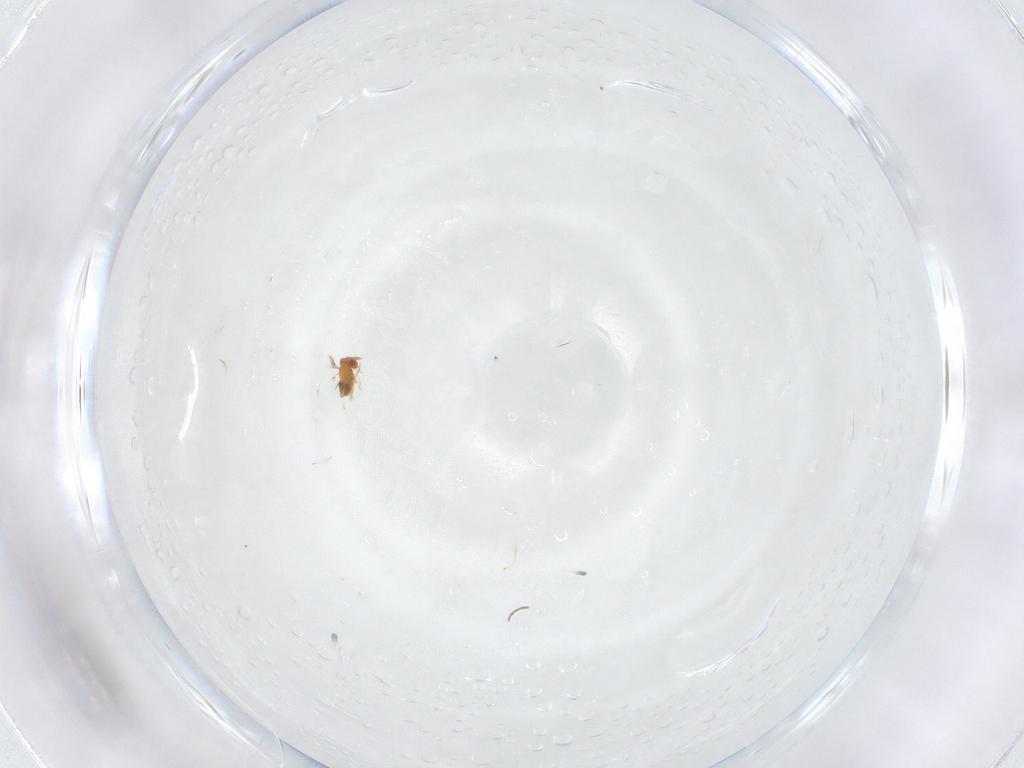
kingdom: Animalia
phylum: Arthropoda
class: Insecta
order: Hymenoptera
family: Trichogrammatidae
